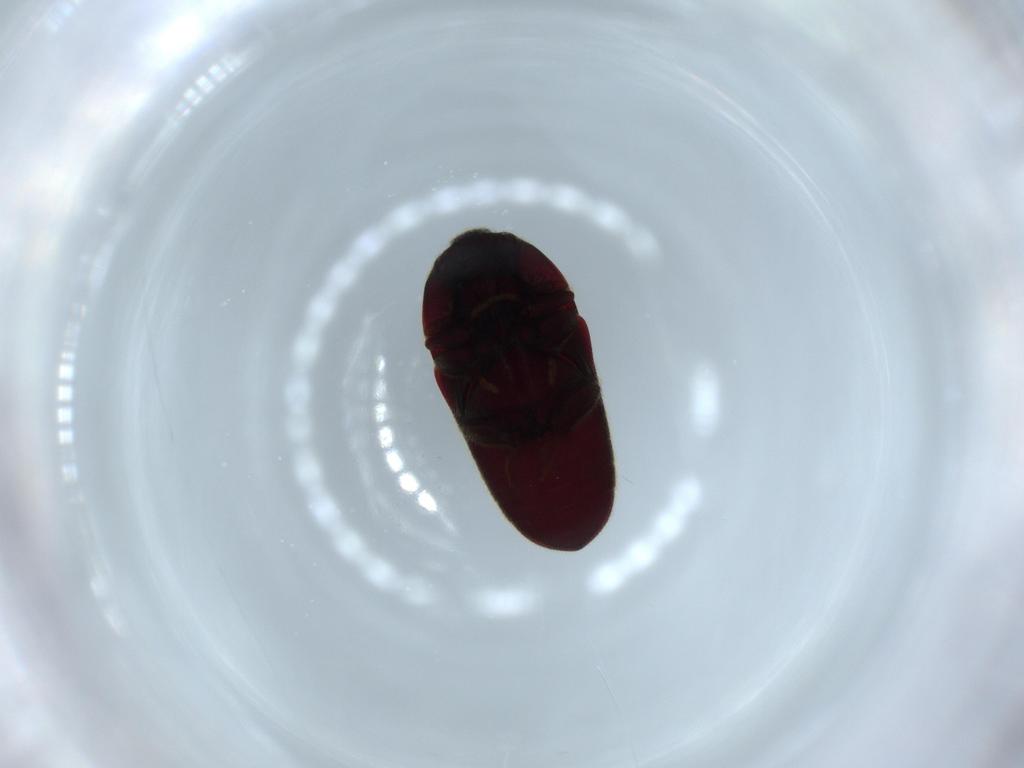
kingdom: Animalia
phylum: Arthropoda
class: Insecta
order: Coleoptera
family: Throscidae
